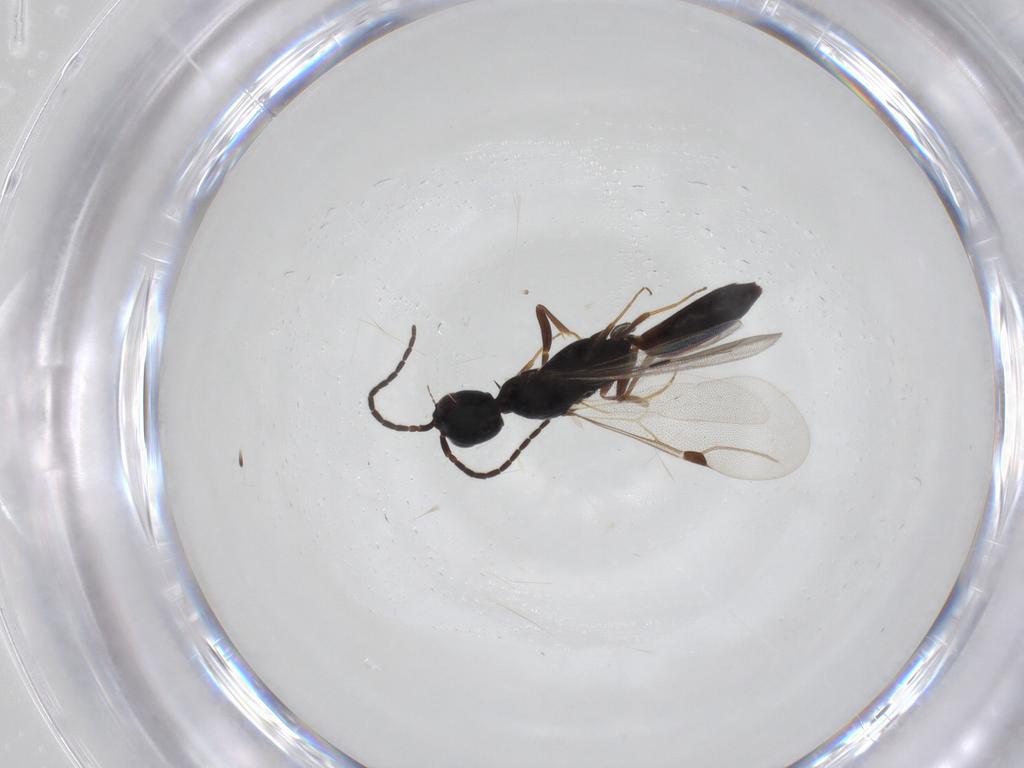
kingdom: Animalia
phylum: Arthropoda
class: Insecta
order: Hymenoptera
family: Bethylidae
